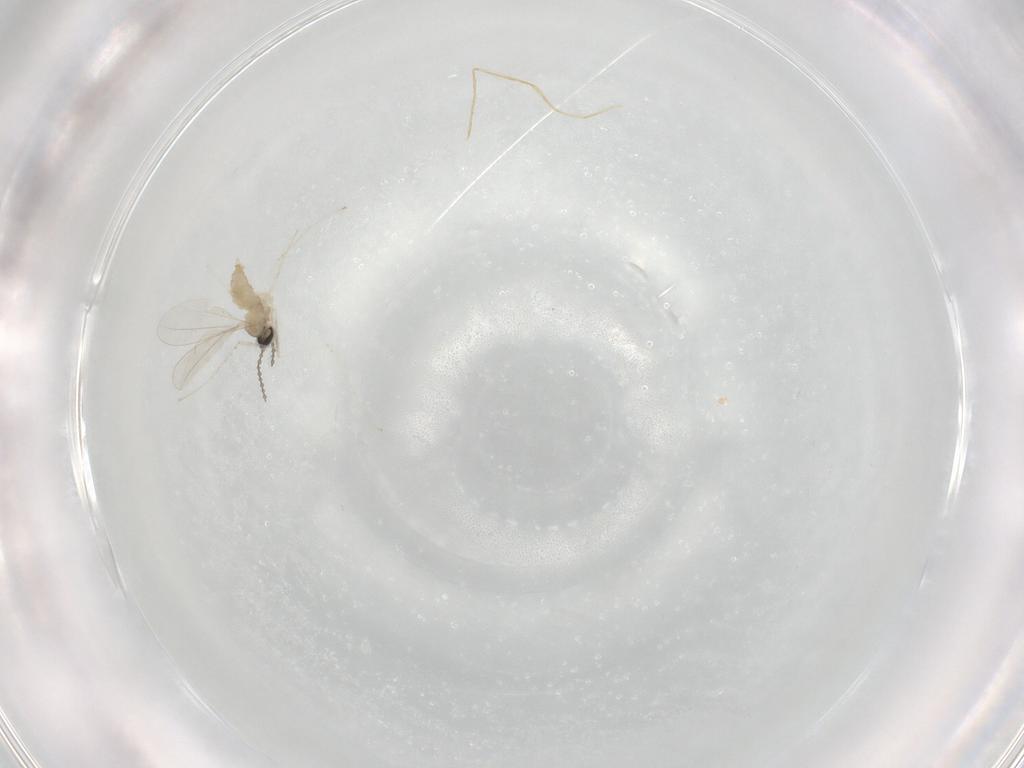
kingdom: Animalia
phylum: Arthropoda
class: Insecta
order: Diptera
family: Cecidomyiidae
